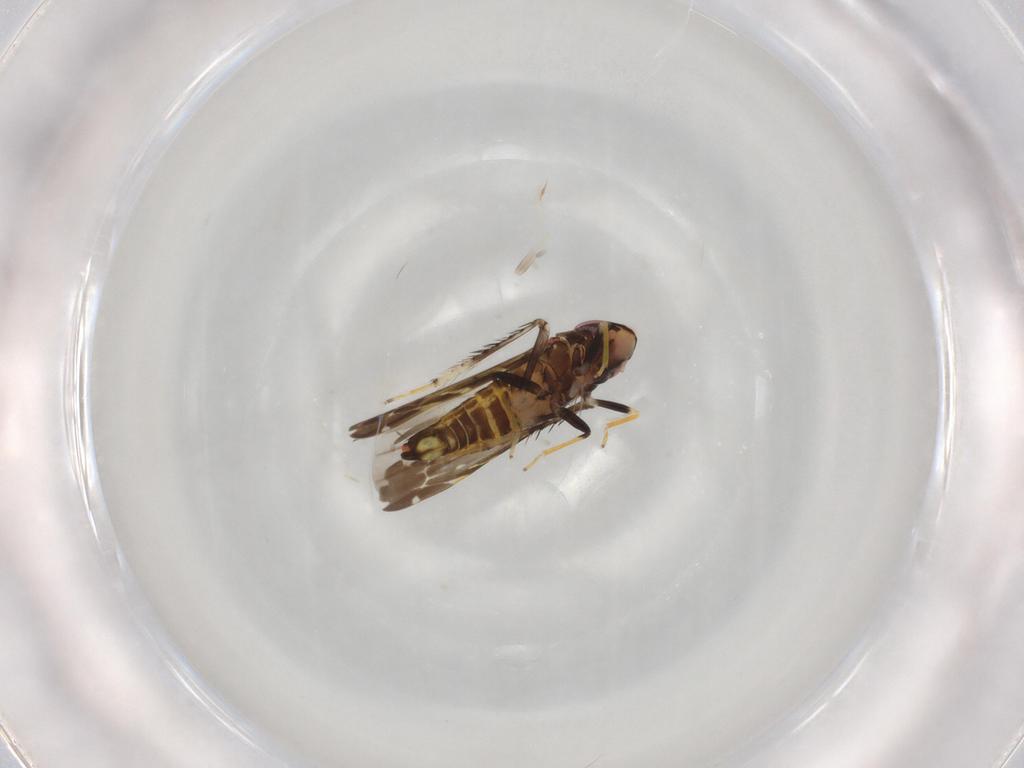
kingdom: Animalia
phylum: Arthropoda
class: Insecta
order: Hemiptera
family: Cicadellidae
